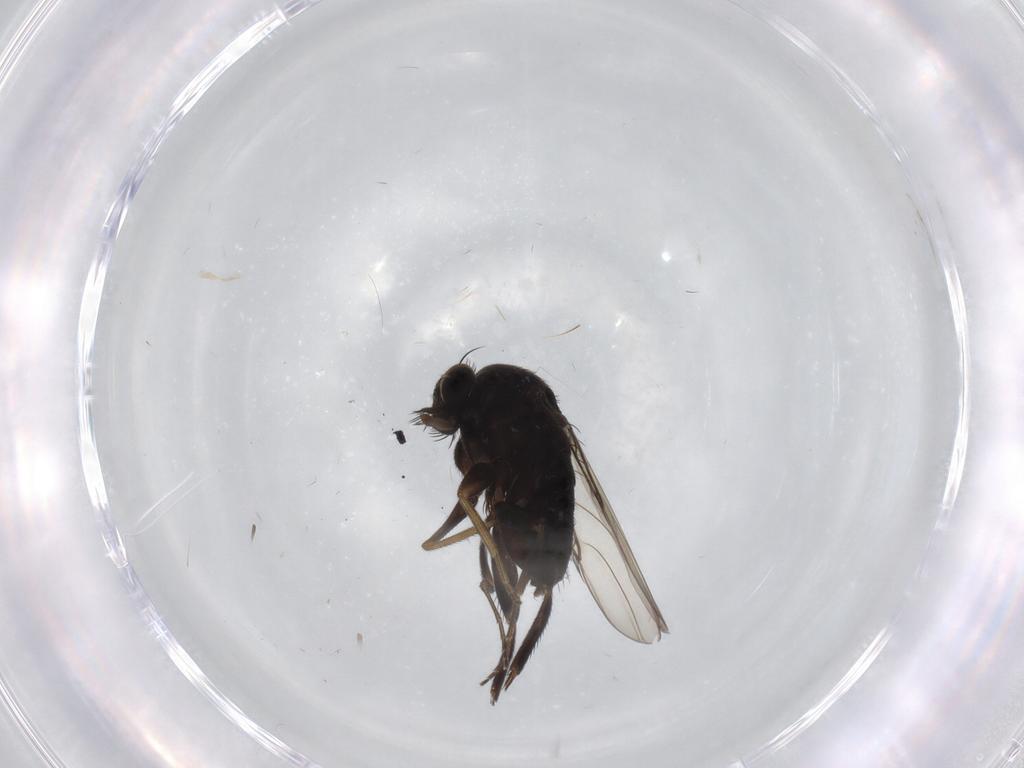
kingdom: Animalia
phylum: Arthropoda
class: Insecta
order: Diptera
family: Phoridae
